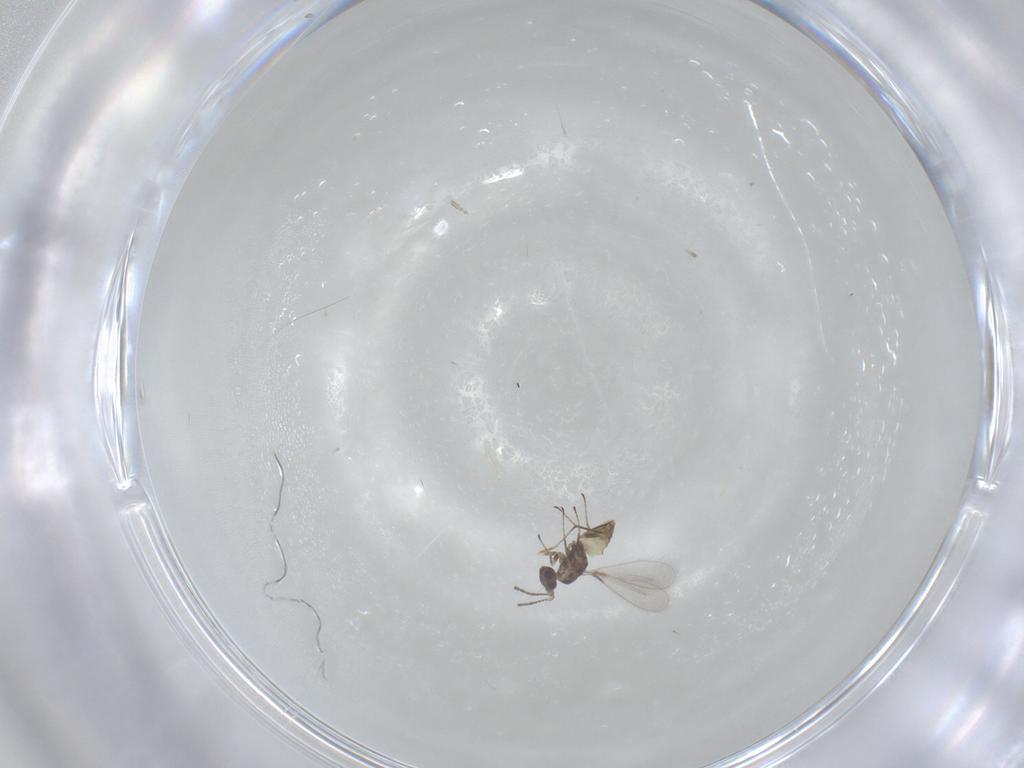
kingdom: Animalia
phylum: Arthropoda
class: Insecta
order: Hymenoptera
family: Mymaridae
